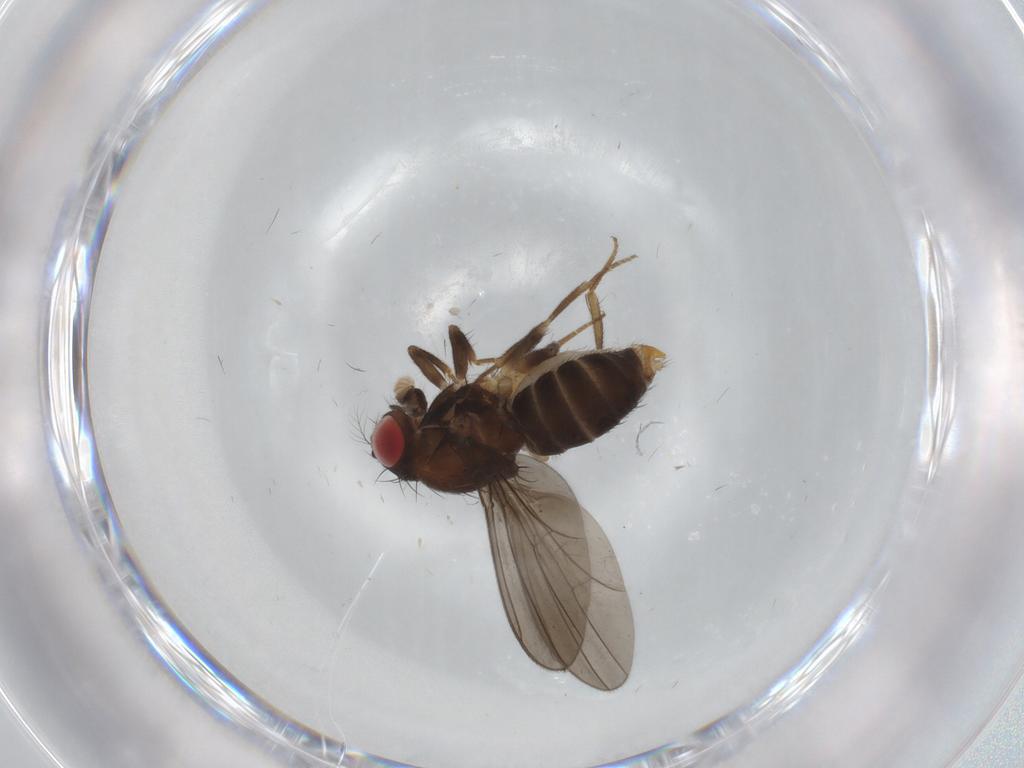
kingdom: Animalia
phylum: Arthropoda
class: Insecta
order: Diptera
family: Drosophilidae
